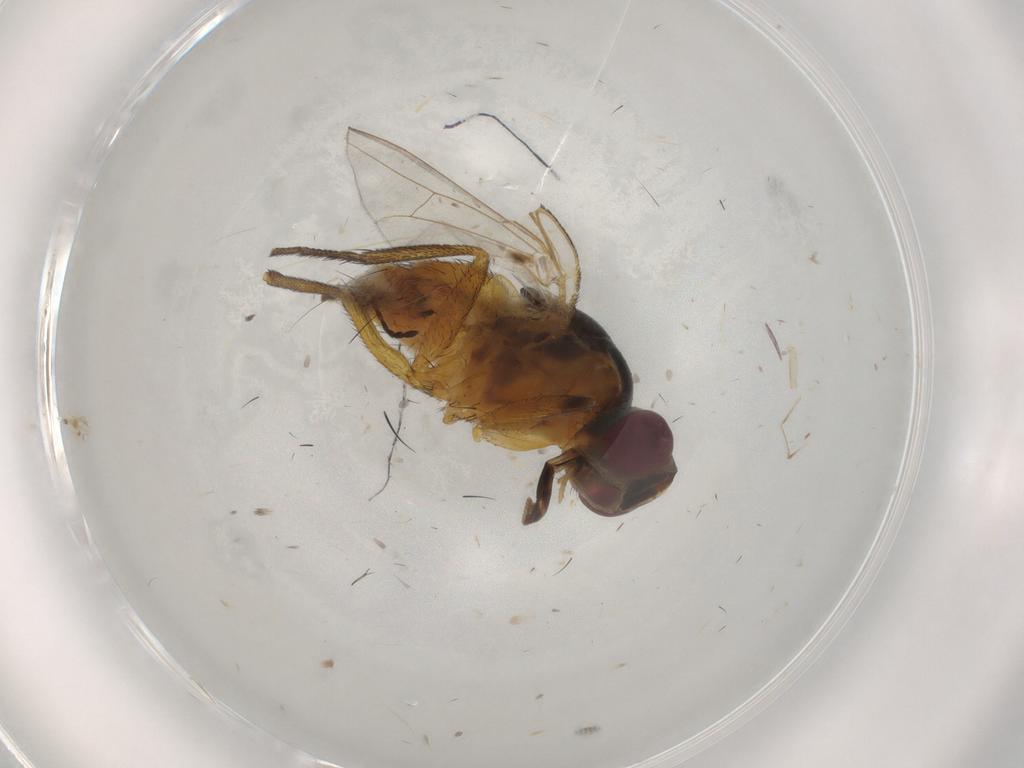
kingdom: Animalia
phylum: Arthropoda
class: Insecta
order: Diptera
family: Muscidae
